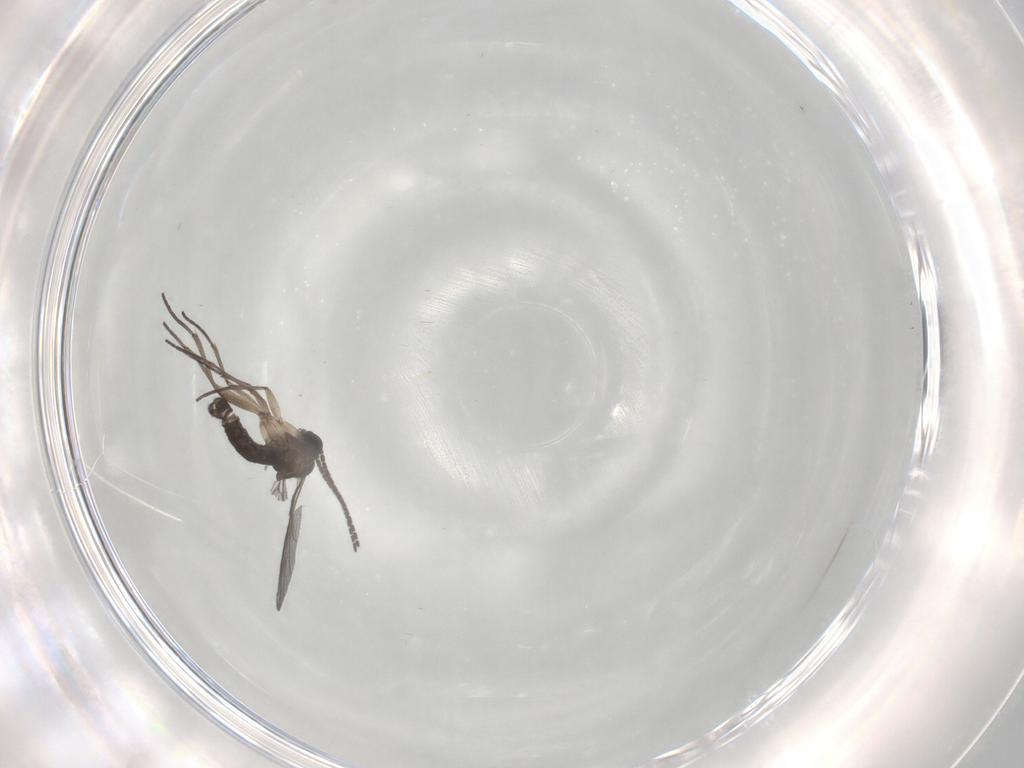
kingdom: Animalia
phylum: Arthropoda
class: Insecta
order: Diptera
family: Sciaridae
